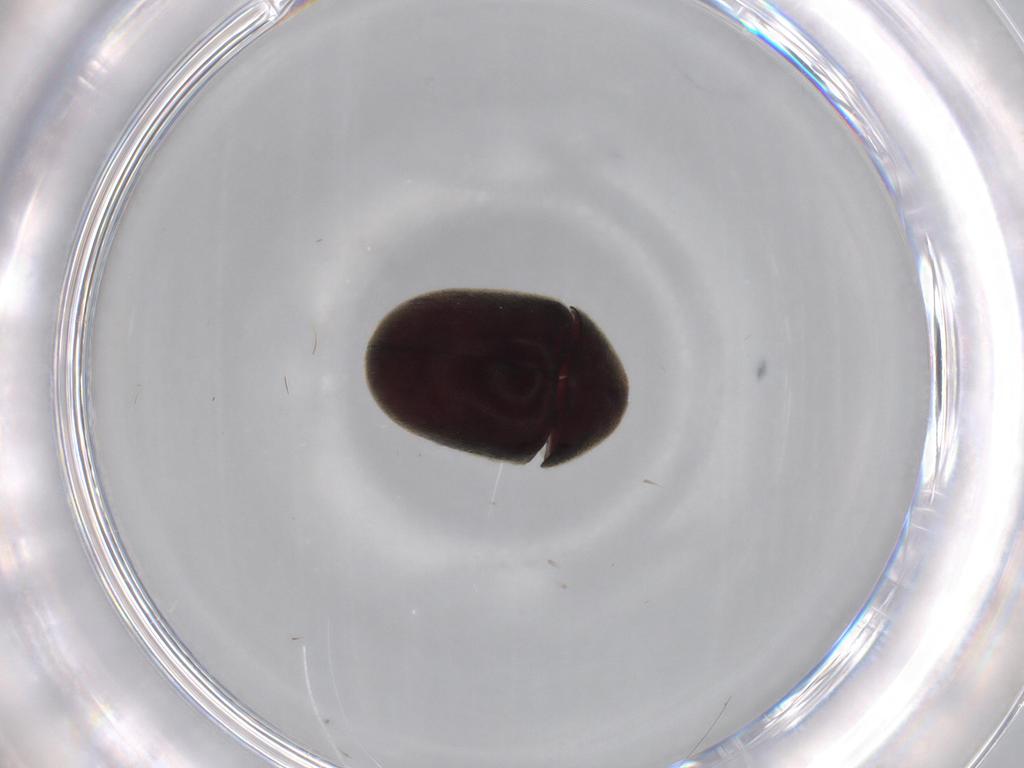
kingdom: Animalia
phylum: Arthropoda
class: Insecta
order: Coleoptera
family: Ptinidae
